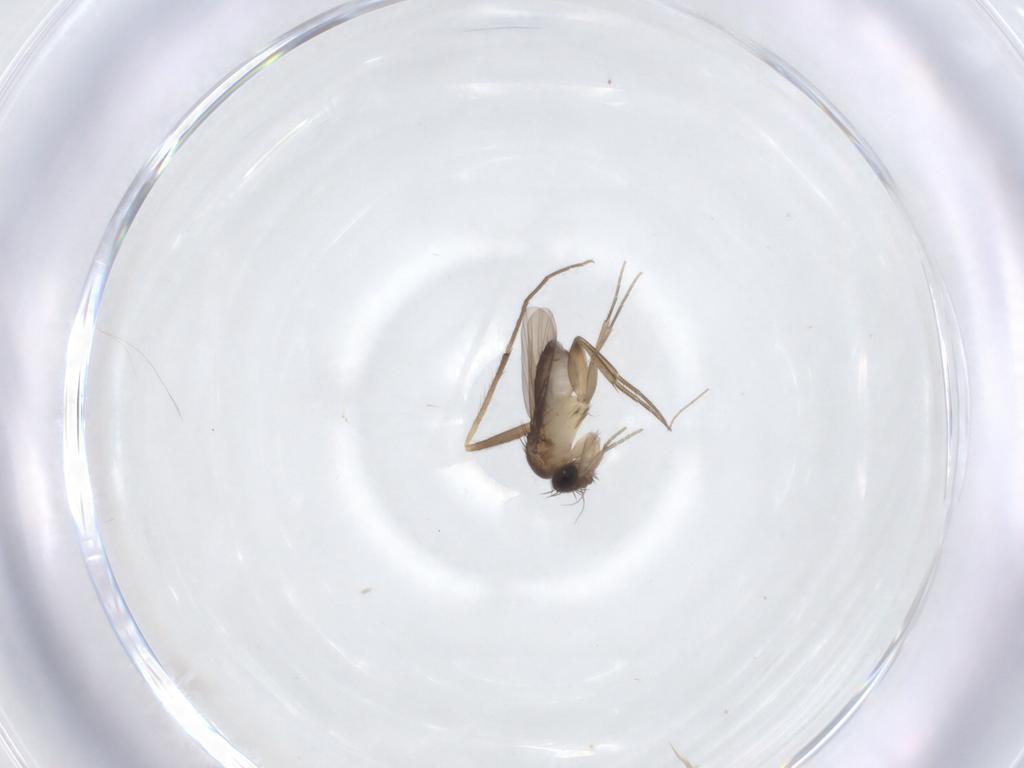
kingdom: Animalia
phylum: Arthropoda
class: Insecta
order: Diptera
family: Phoridae
